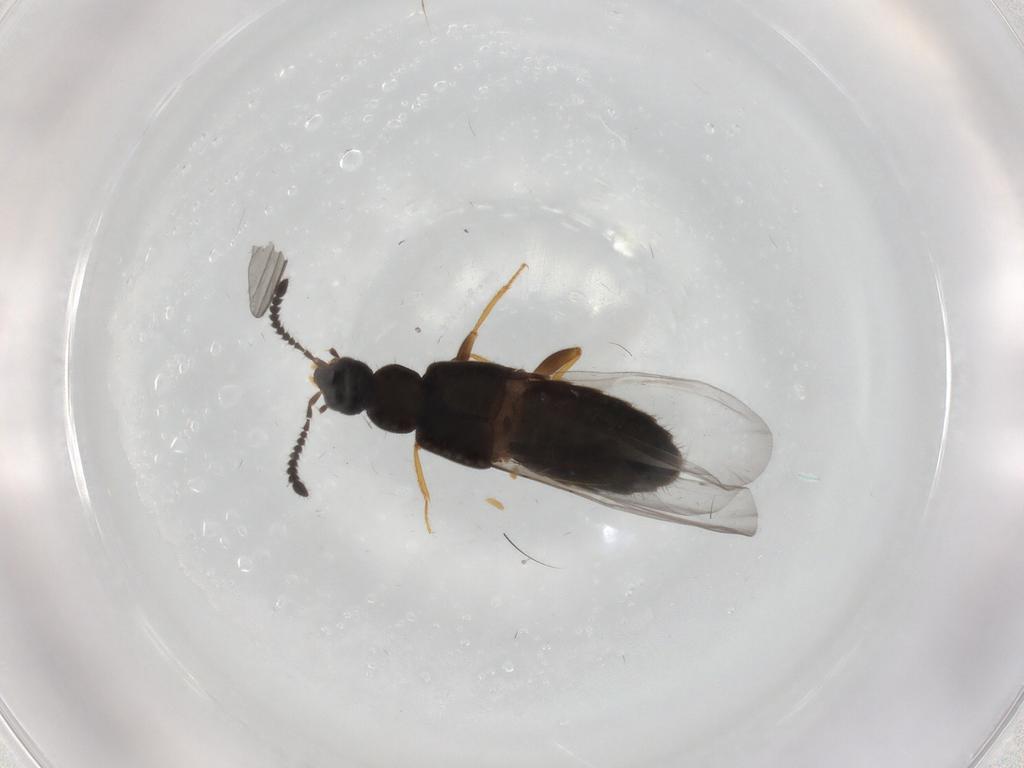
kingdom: Animalia
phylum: Arthropoda
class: Insecta
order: Coleoptera
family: Staphylinidae
